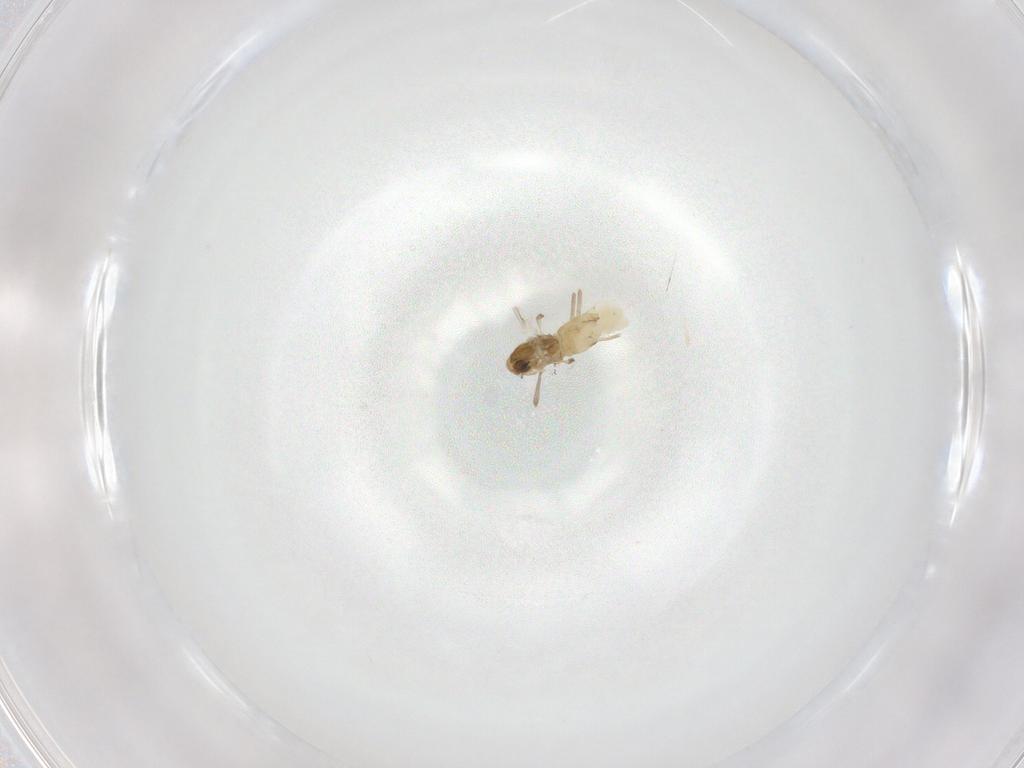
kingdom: Animalia
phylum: Arthropoda
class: Insecta
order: Diptera
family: Chironomidae
